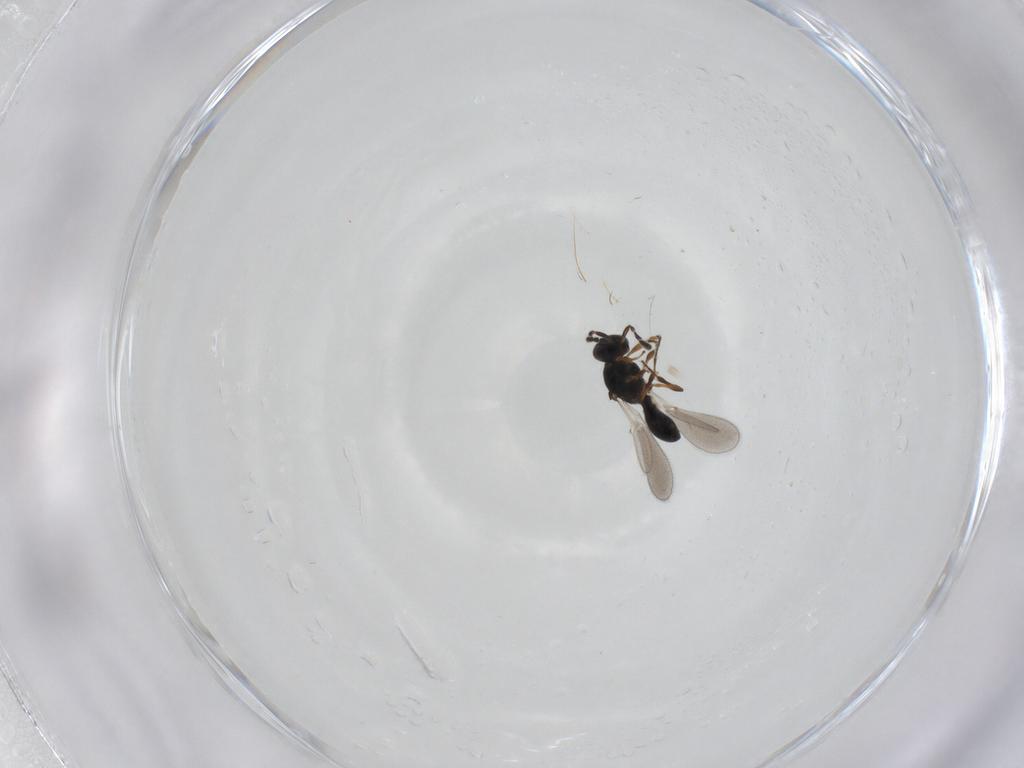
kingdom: Animalia
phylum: Arthropoda
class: Insecta
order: Hymenoptera
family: Platygastridae
